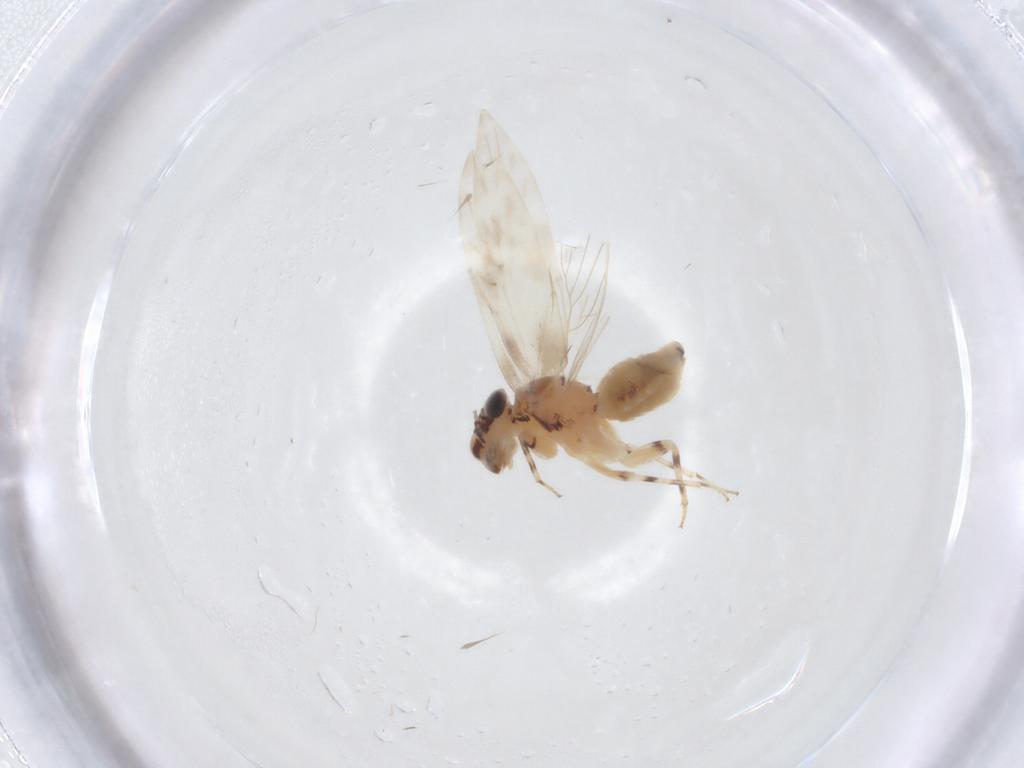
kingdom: Animalia
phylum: Arthropoda
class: Insecta
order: Psocodea
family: Lepidopsocidae
